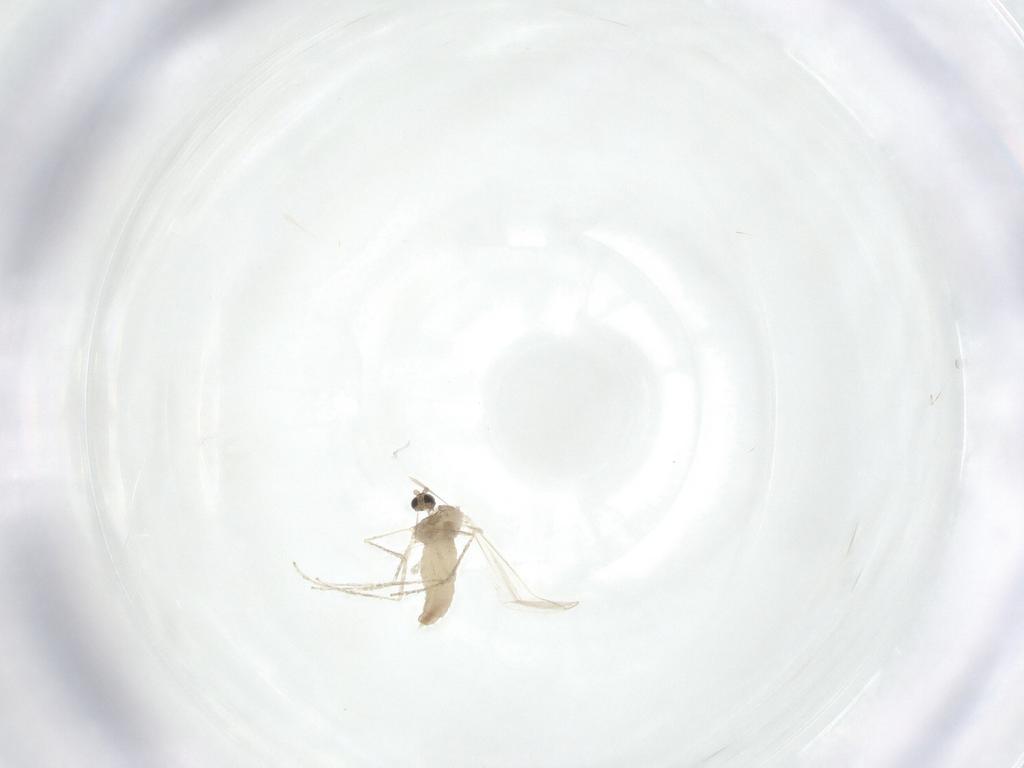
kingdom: Animalia
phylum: Arthropoda
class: Insecta
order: Diptera
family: Cecidomyiidae
